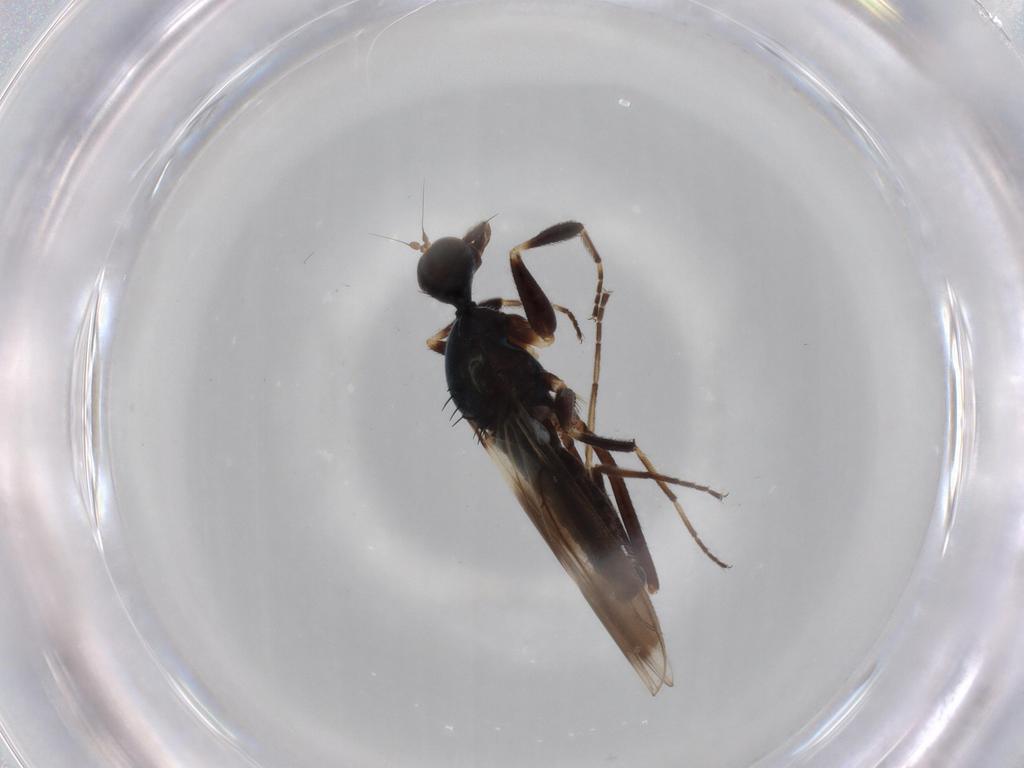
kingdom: Animalia
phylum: Arthropoda
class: Insecta
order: Diptera
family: Hybotidae
